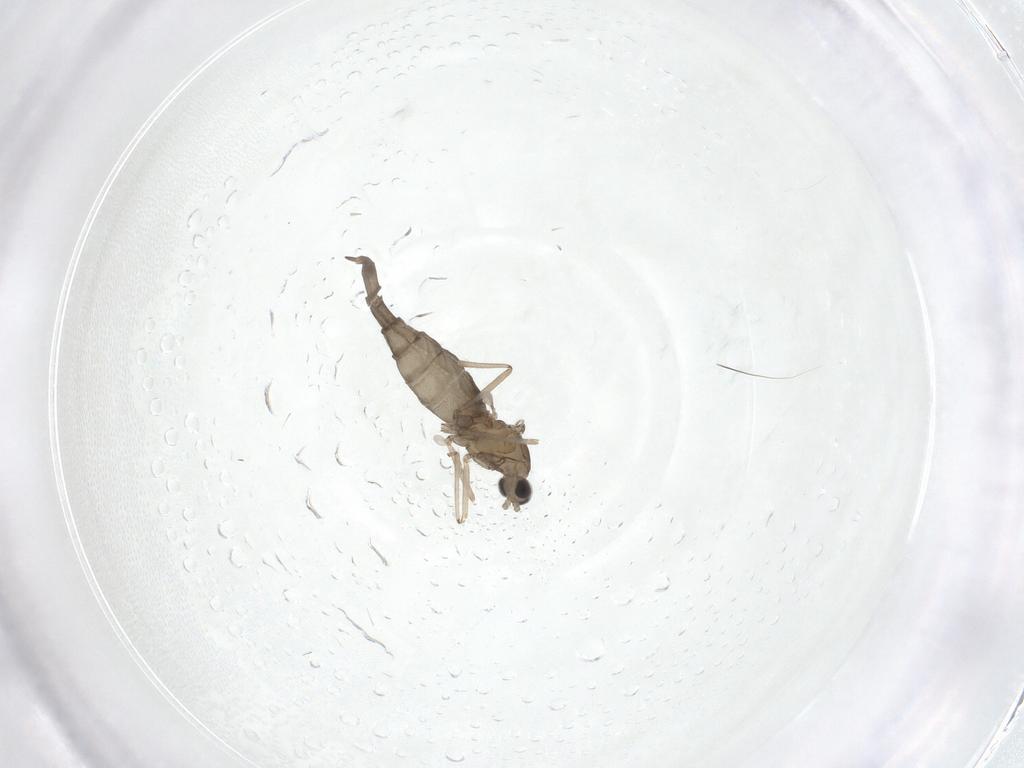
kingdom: Animalia
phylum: Arthropoda
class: Insecta
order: Diptera
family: Cecidomyiidae
